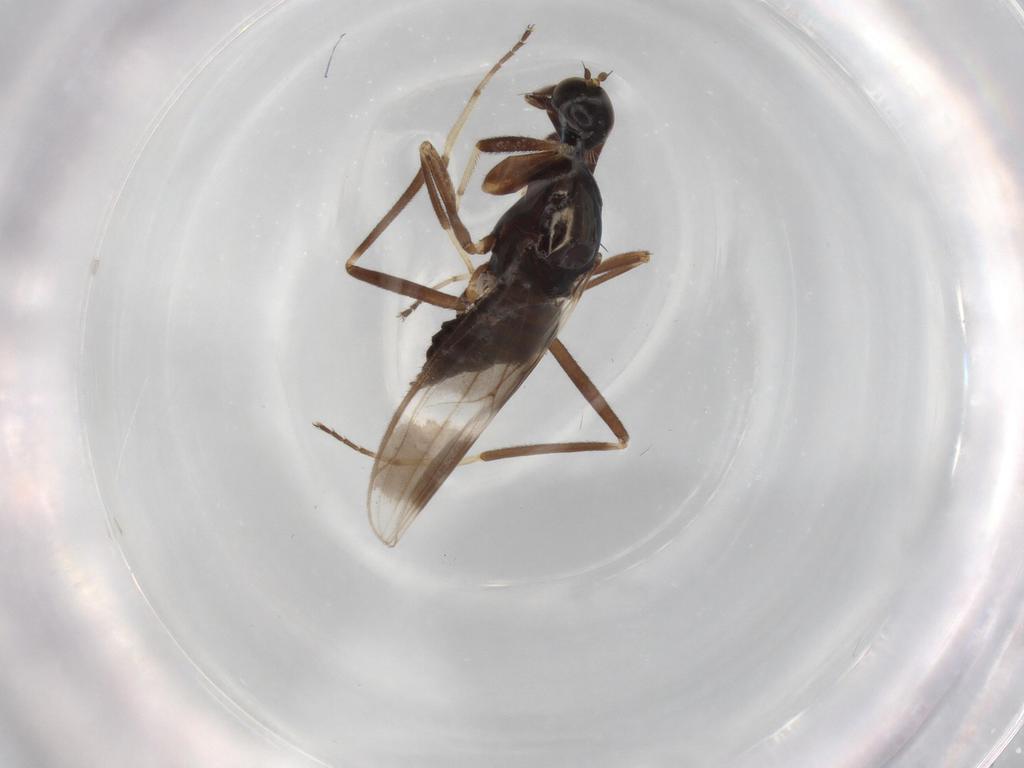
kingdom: Animalia
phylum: Arthropoda
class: Insecta
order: Diptera
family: Hybotidae
